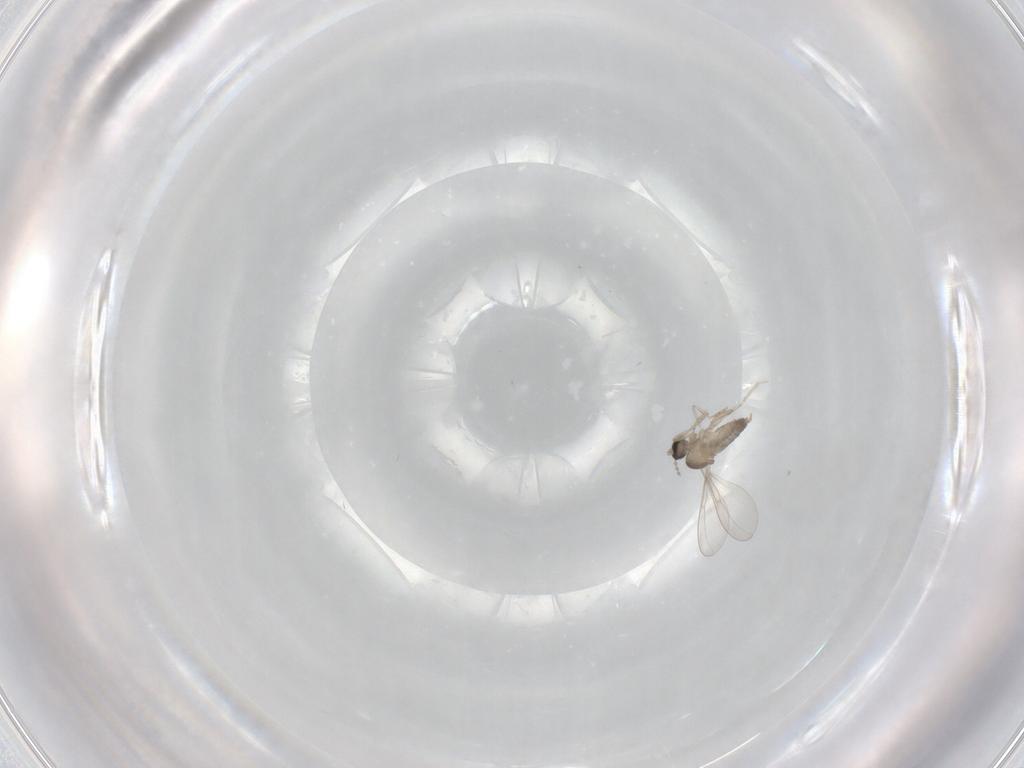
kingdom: Animalia
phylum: Arthropoda
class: Insecta
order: Diptera
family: Cecidomyiidae
